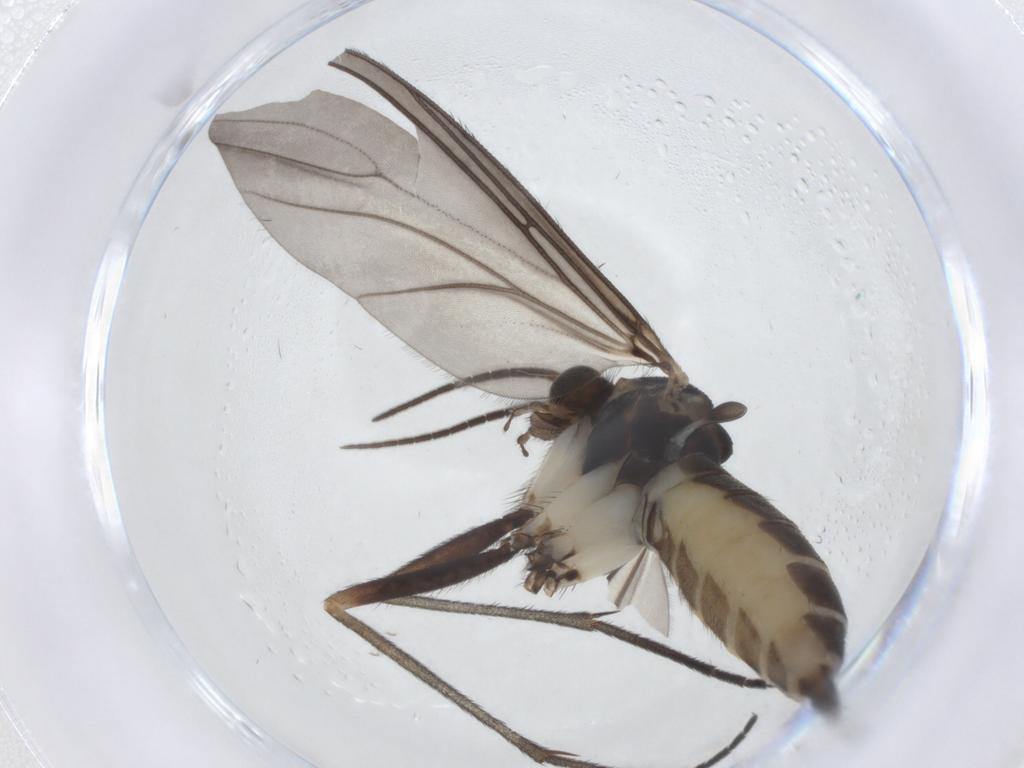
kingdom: Animalia
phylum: Arthropoda
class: Insecta
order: Diptera
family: Sciaridae
